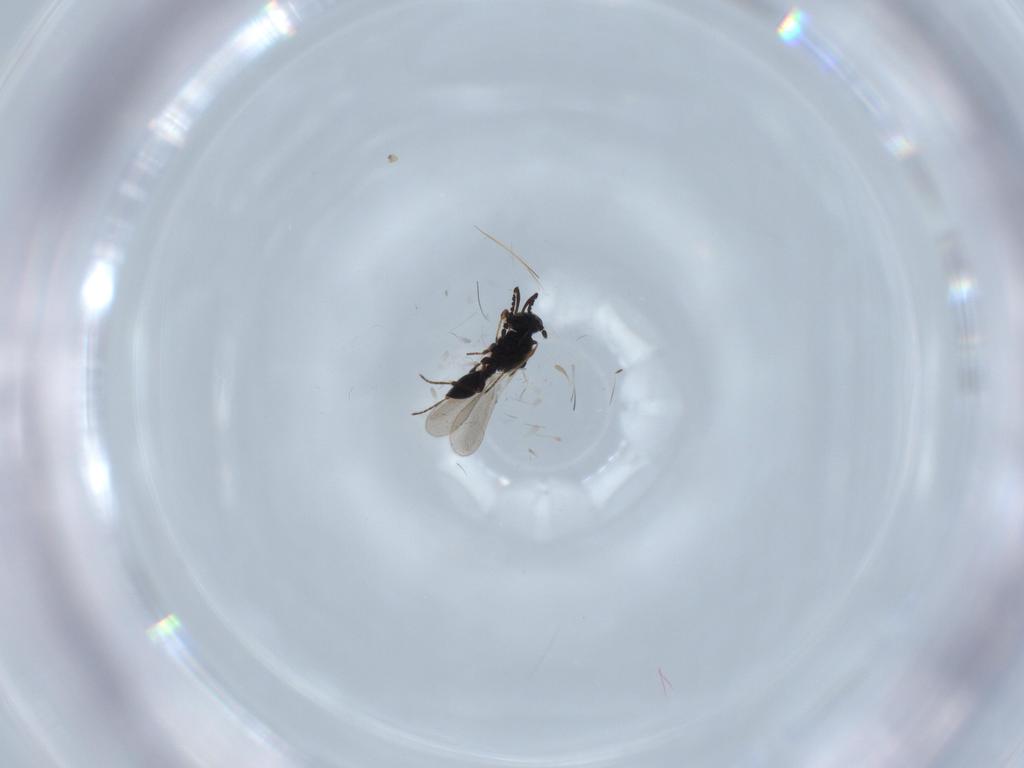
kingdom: Animalia
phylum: Arthropoda
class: Insecta
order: Hymenoptera
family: Platygastridae
